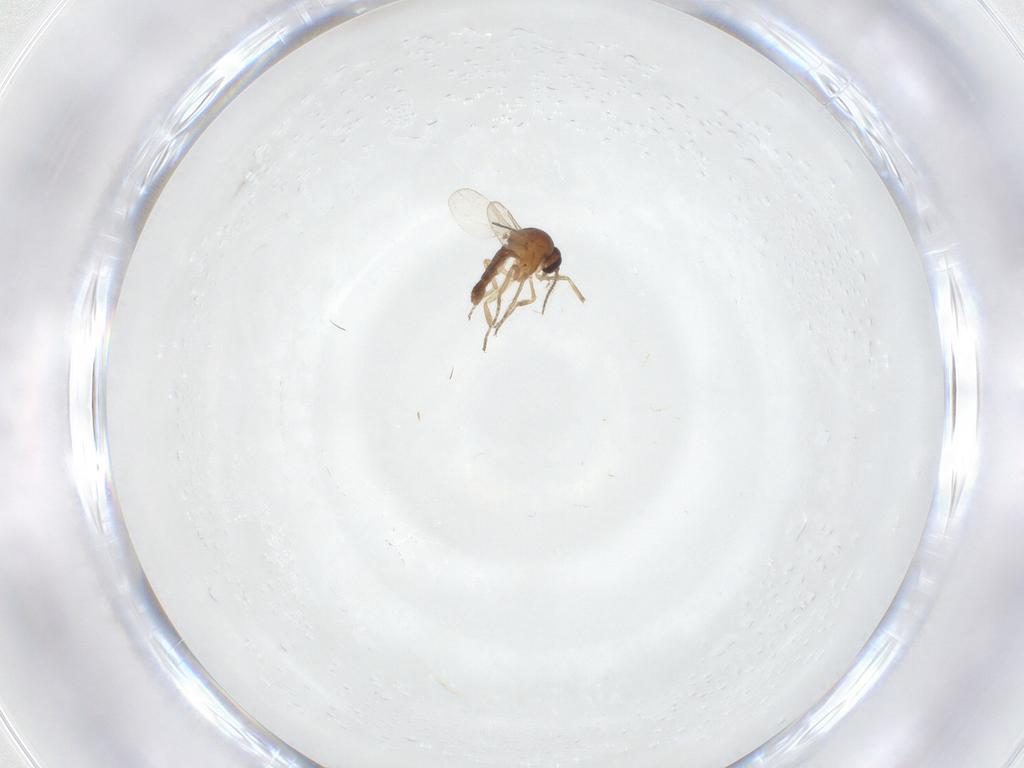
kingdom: Animalia
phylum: Arthropoda
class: Insecta
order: Diptera
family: Ceratopogonidae
